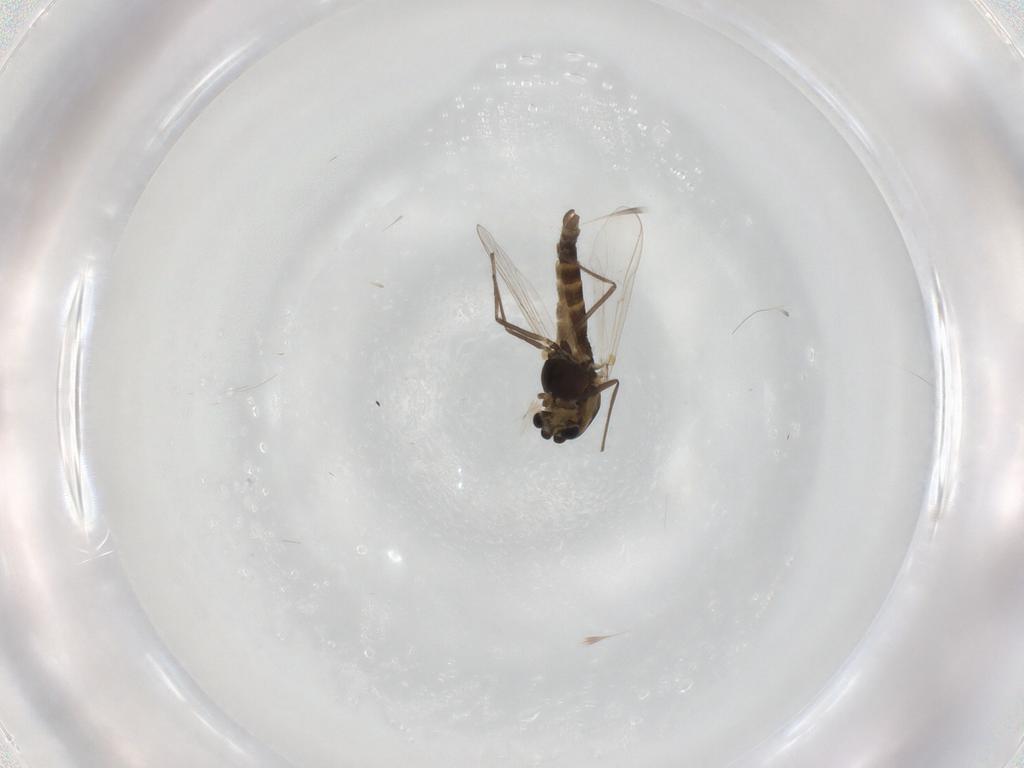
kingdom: Animalia
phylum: Arthropoda
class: Insecta
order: Diptera
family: Chironomidae
